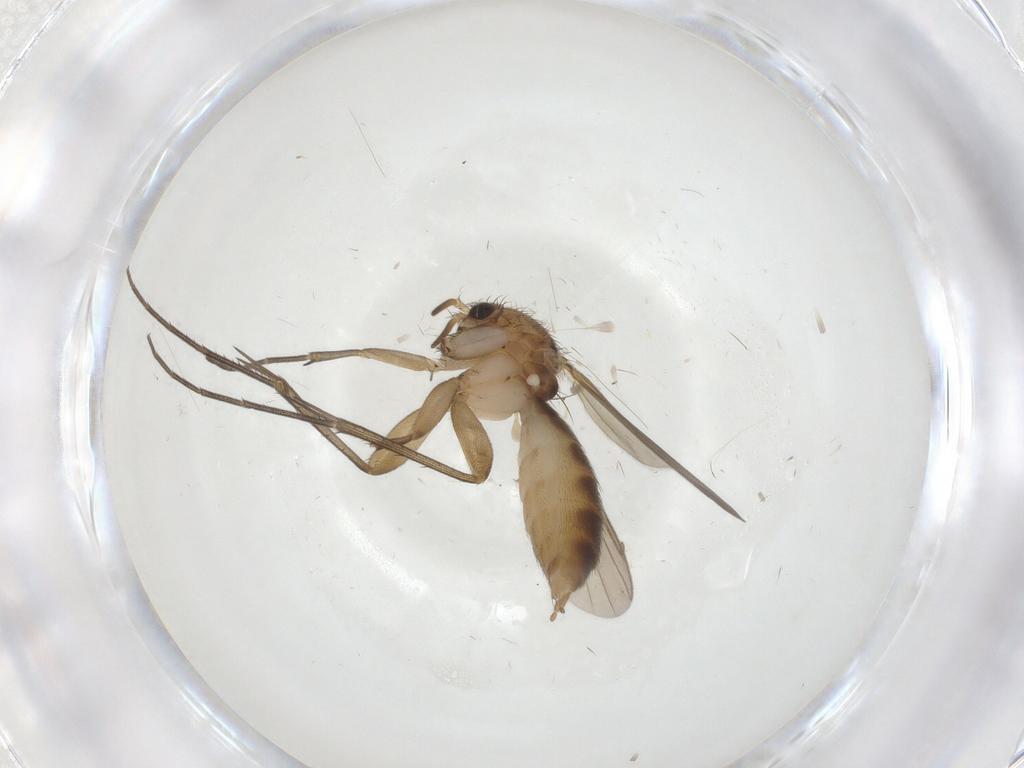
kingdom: Animalia
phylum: Arthropoda
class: Insecta
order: Diptera
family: Mycetophilidae
